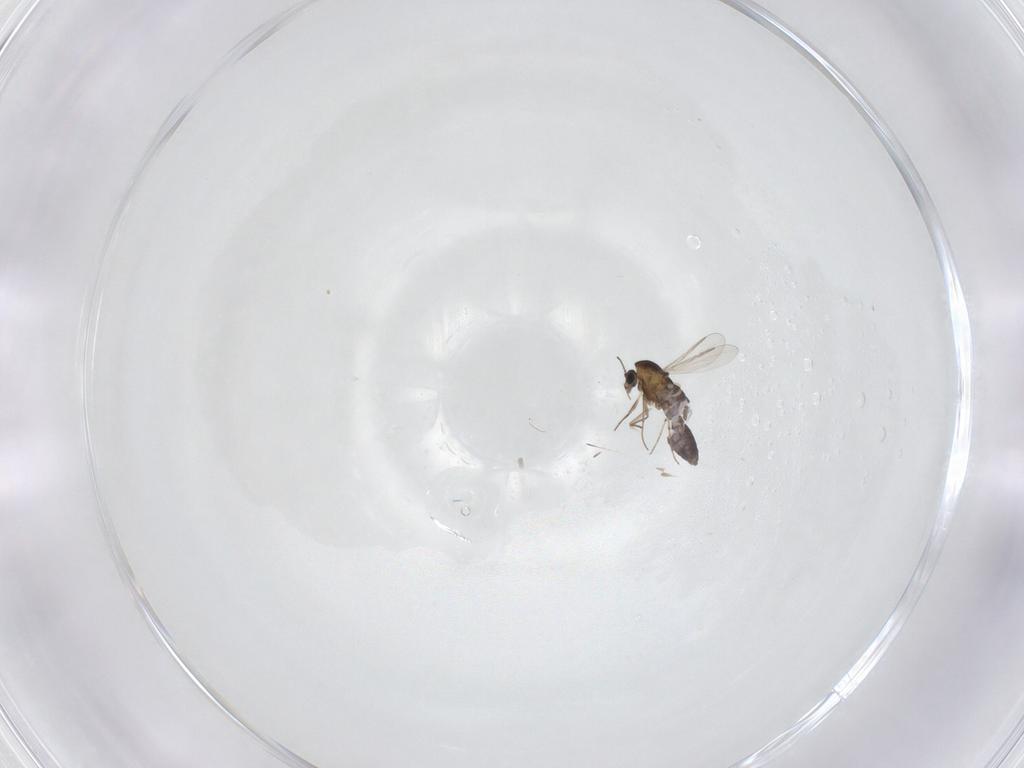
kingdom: Animalia
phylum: Arthropoda
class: Insecta
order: Diptera
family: Chironomidae
